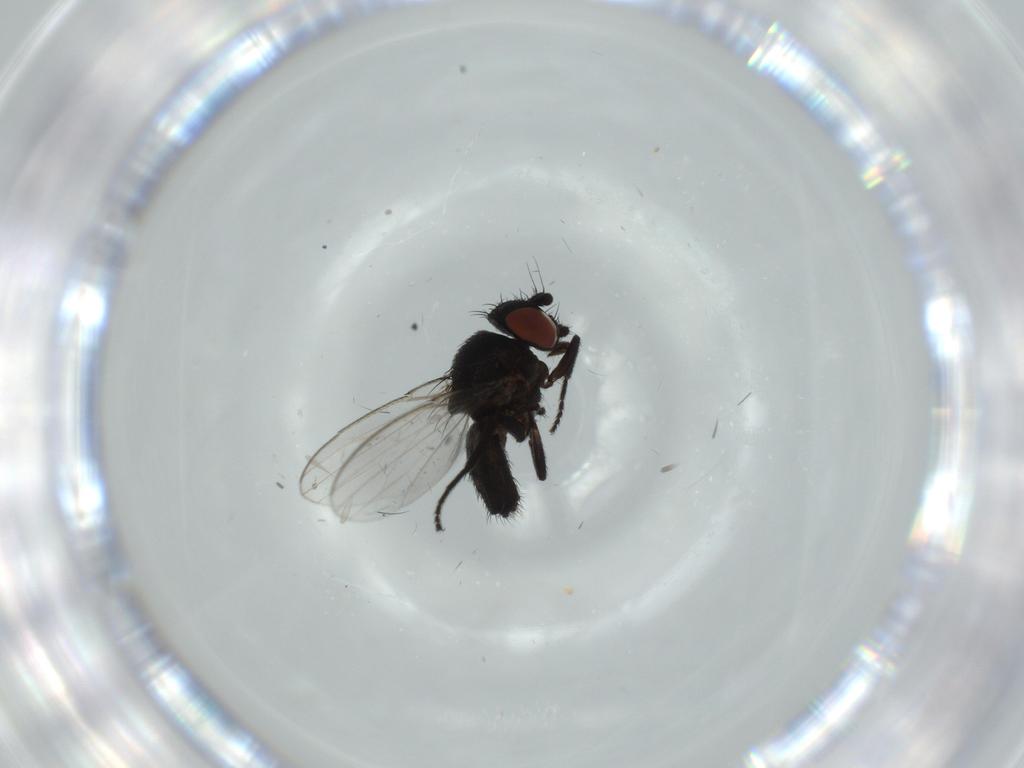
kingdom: Animalia
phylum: Arthropoda
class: Insecta
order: Diptera
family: Milichiidae
